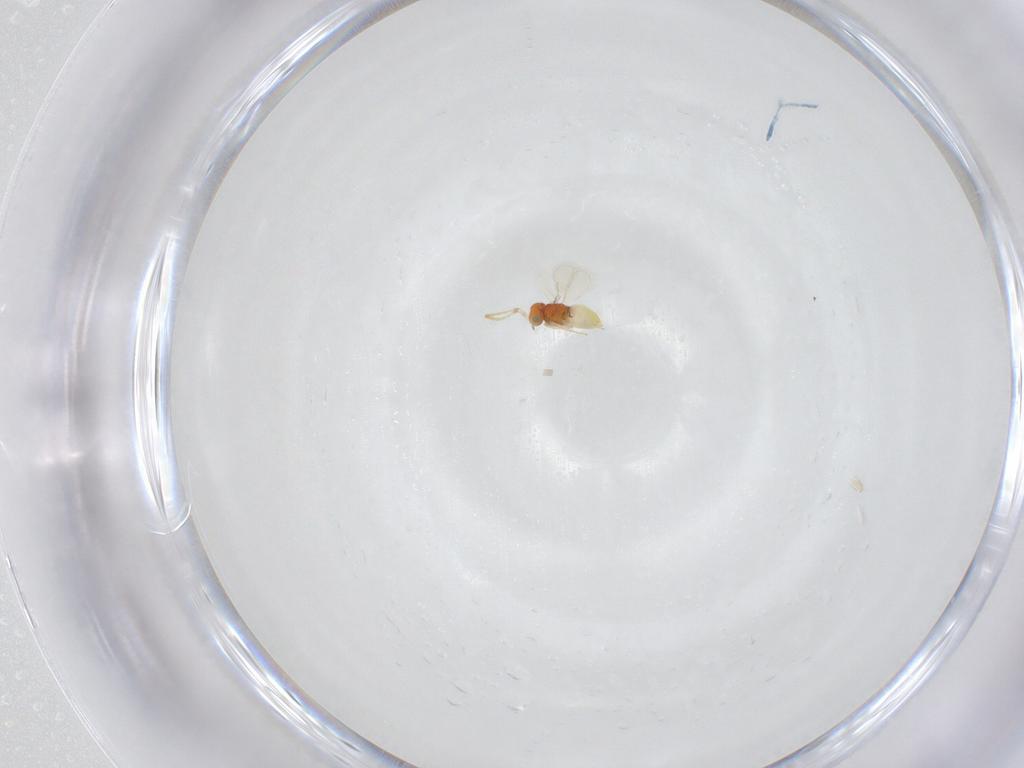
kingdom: Animalia
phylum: Arthropoda
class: Insecta
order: Hymenoptera
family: Aphelinidae
